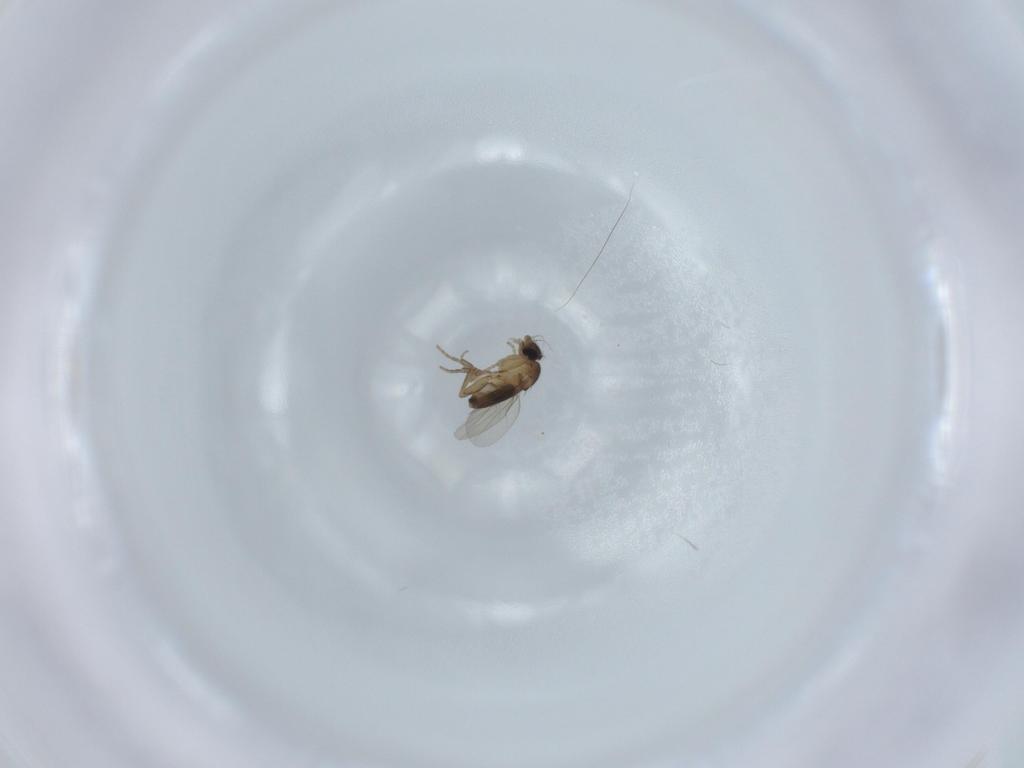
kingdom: Animalia
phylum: Arthropoda
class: Insecta
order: Diptera
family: Phoridae
